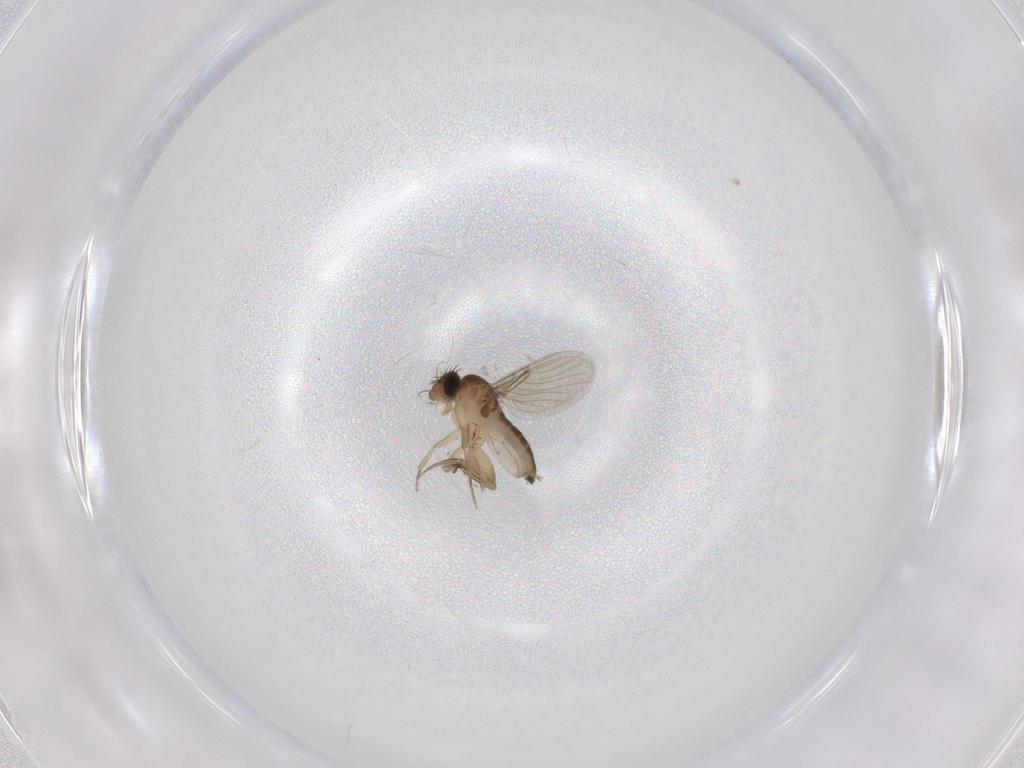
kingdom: Animalia
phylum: Arthropoda
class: Insecta
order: Diptera
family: Phoridae
